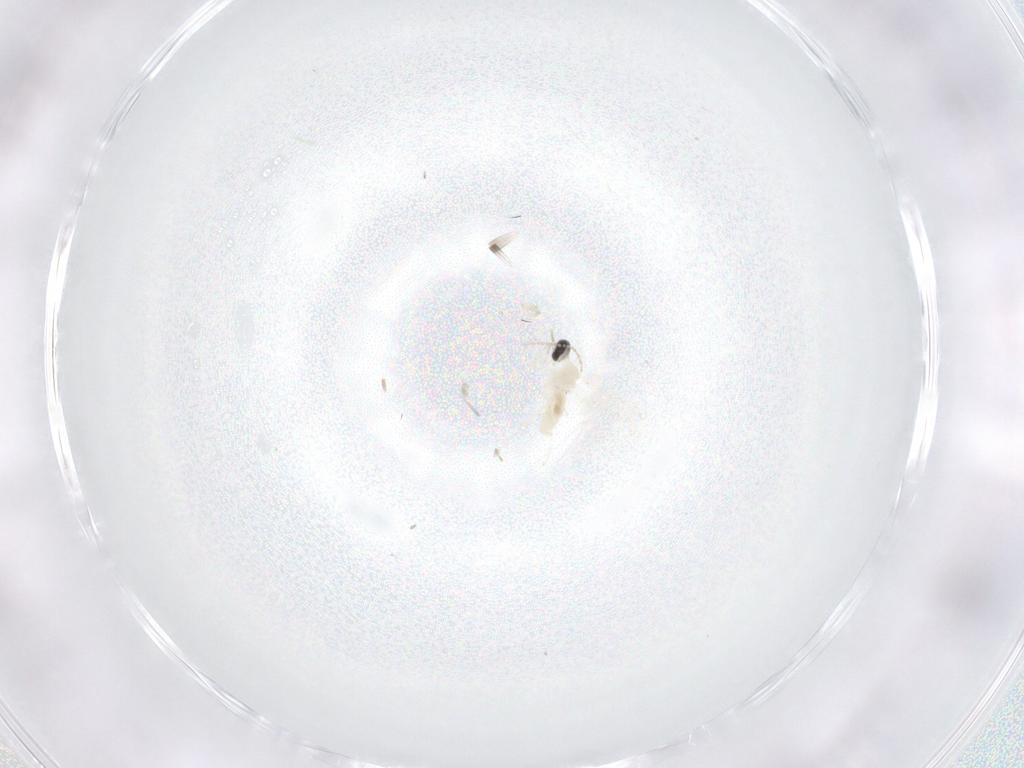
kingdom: Animalia
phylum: Arthropoda
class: Insecta
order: Diptera
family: Cecidomyiidae
